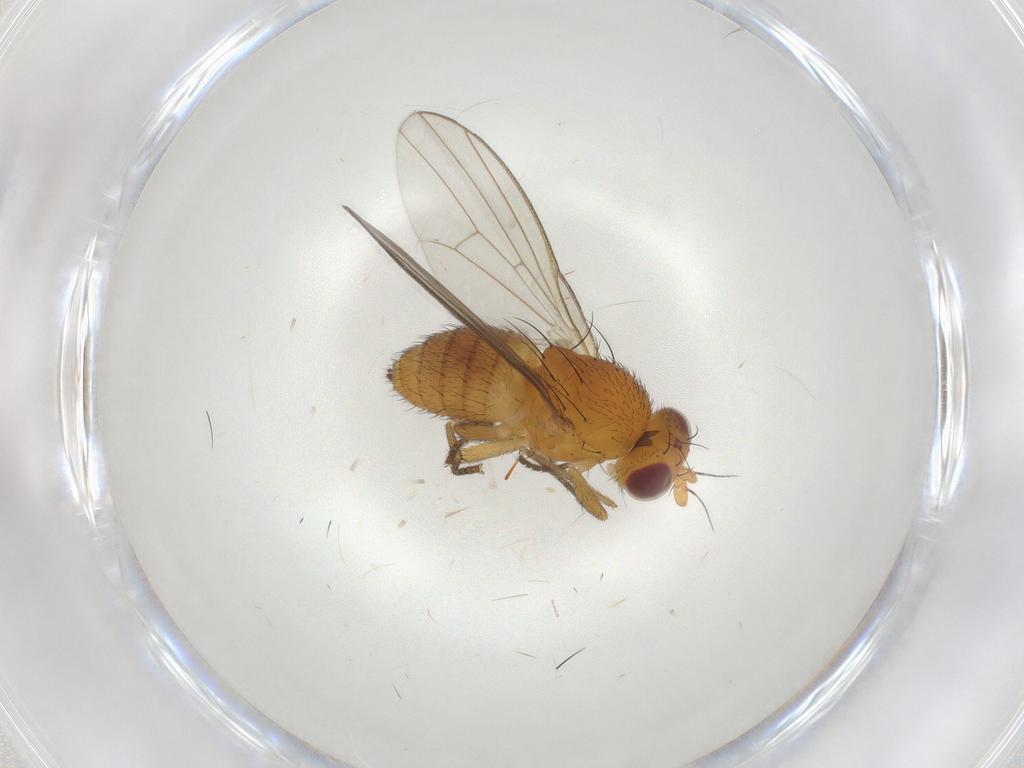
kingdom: Animalia
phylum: Arthropoda
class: Insecta
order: Diptera
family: Lauxaniidae
